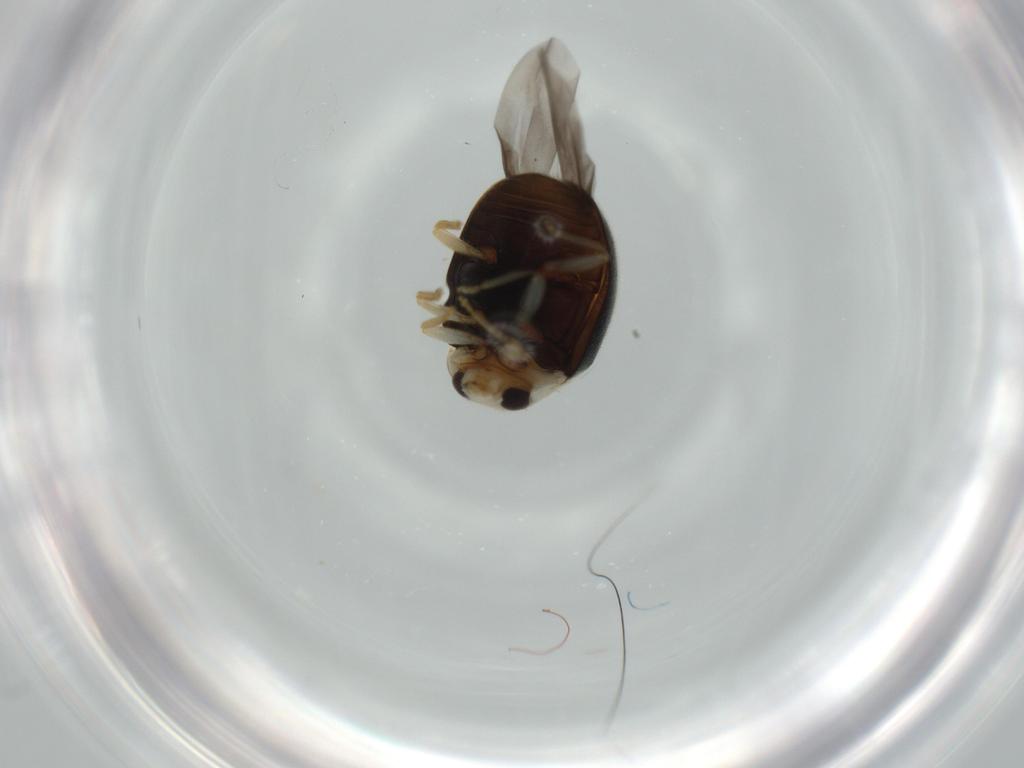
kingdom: Animalia
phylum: Arthropoda
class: Insecta
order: Coleoptera
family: Coccinellidae
